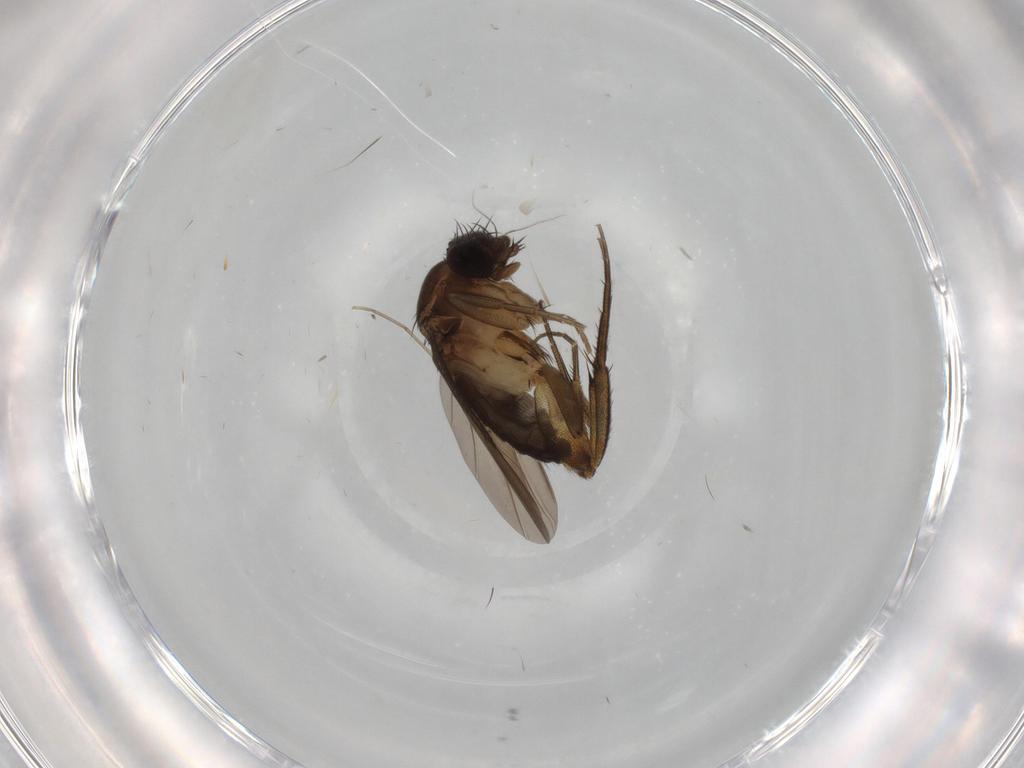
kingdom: Animalia
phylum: Arthropoda
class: Insecta
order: Diptera
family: Phoridae
